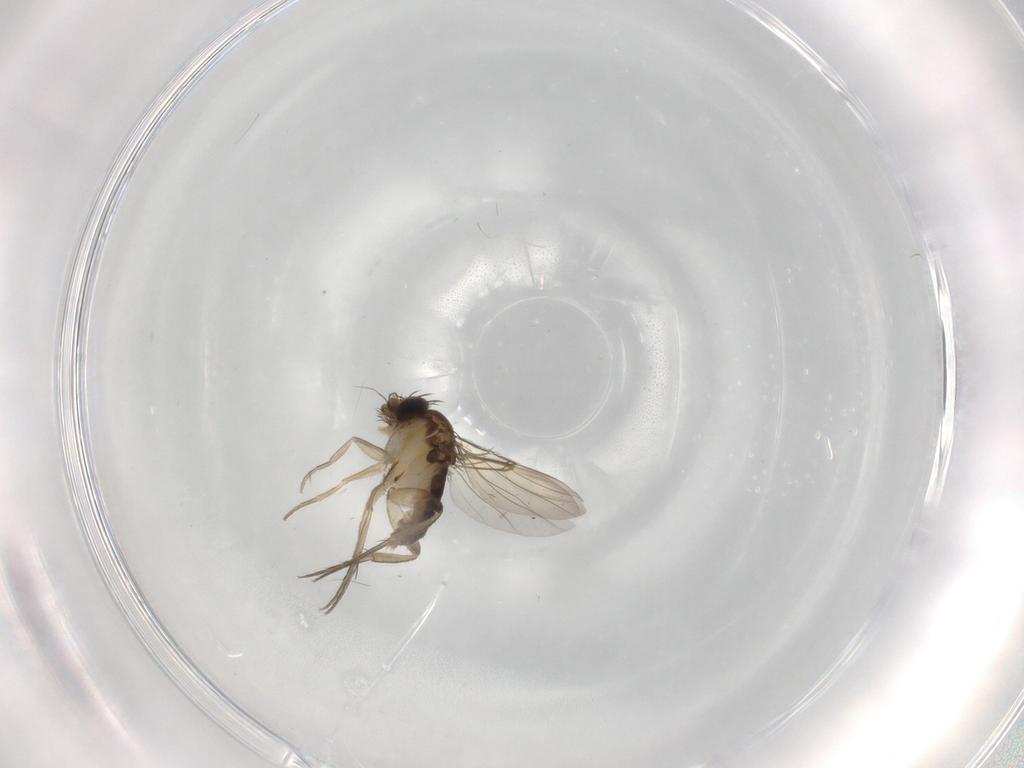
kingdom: Animalia
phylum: Arthropoda
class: Insecta
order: Diptera
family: Phoridae
